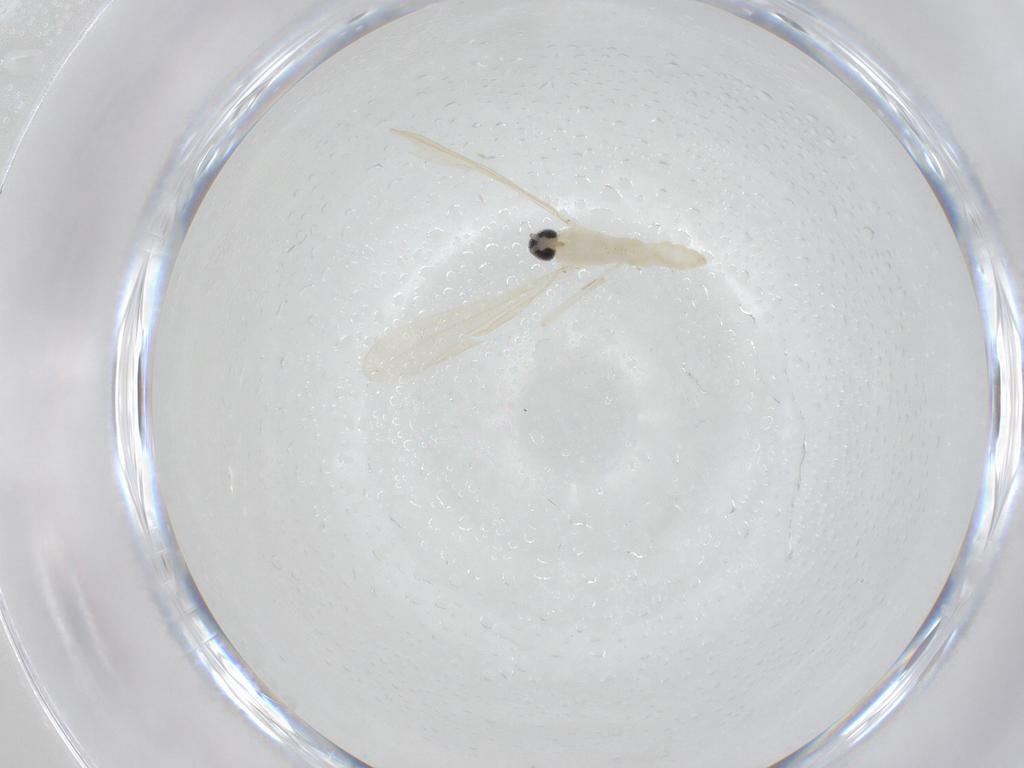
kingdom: Animalia
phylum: Arthropoda
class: Insecta
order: Diptera
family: Cecidomyiidae
